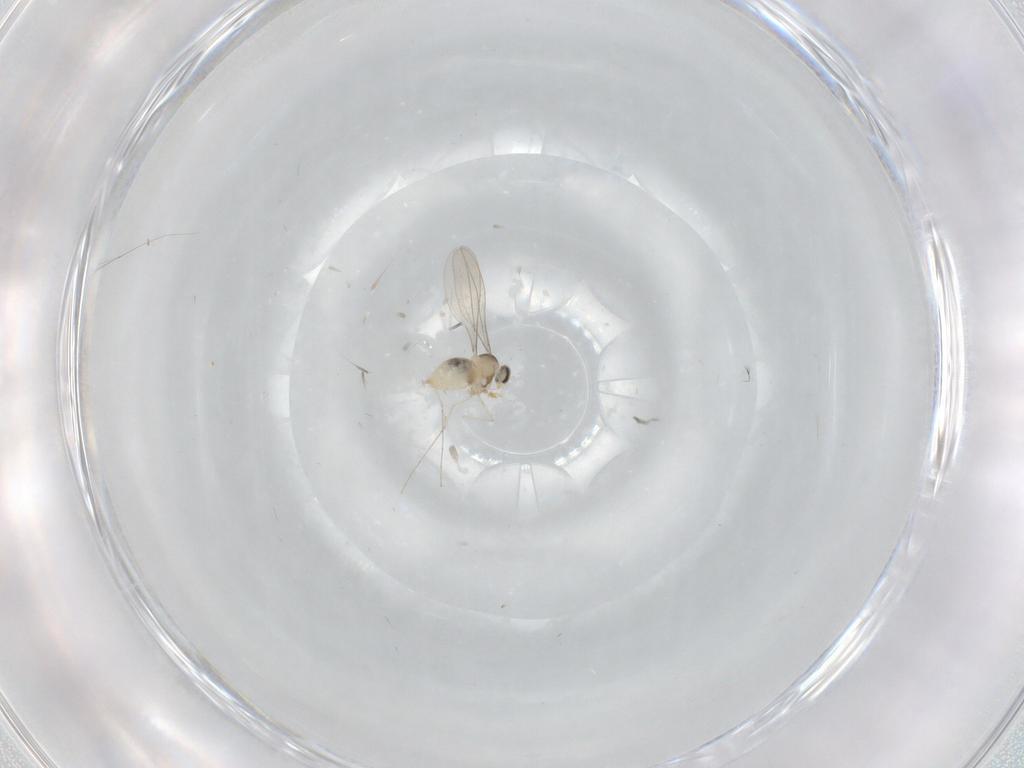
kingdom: Animalia
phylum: Arthropoda
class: Insecta
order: Diptera
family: Cecidomyiidae
